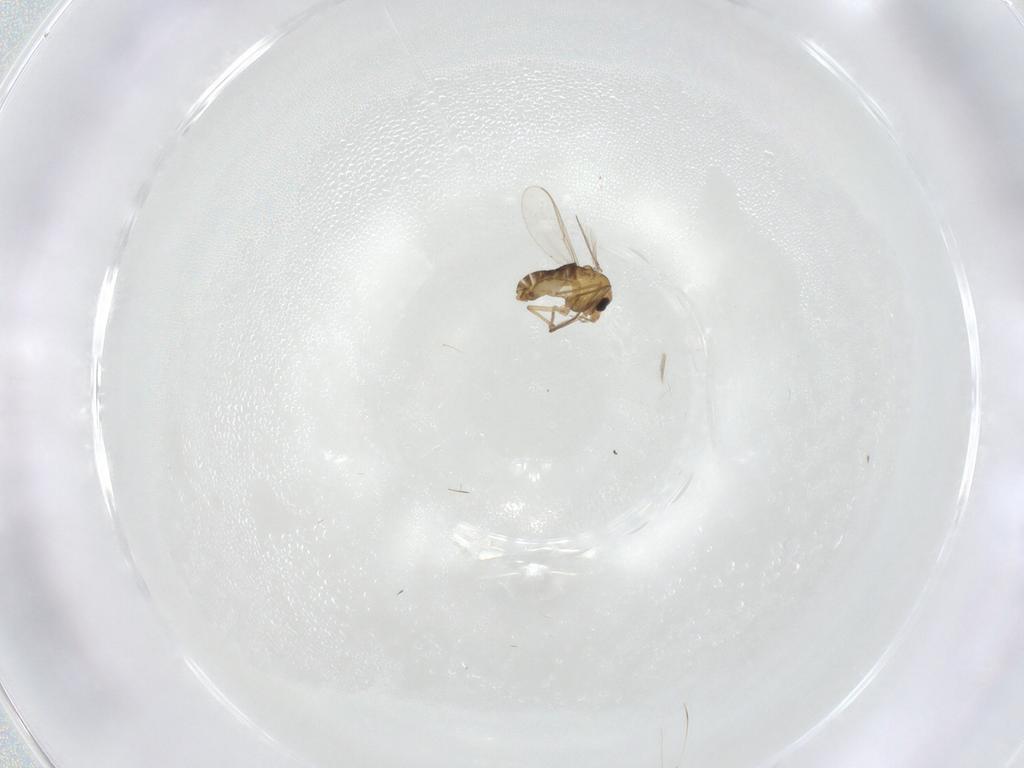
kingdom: Animalia
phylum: Arthropoda
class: Insecta
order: Diptera
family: Chironomidae
